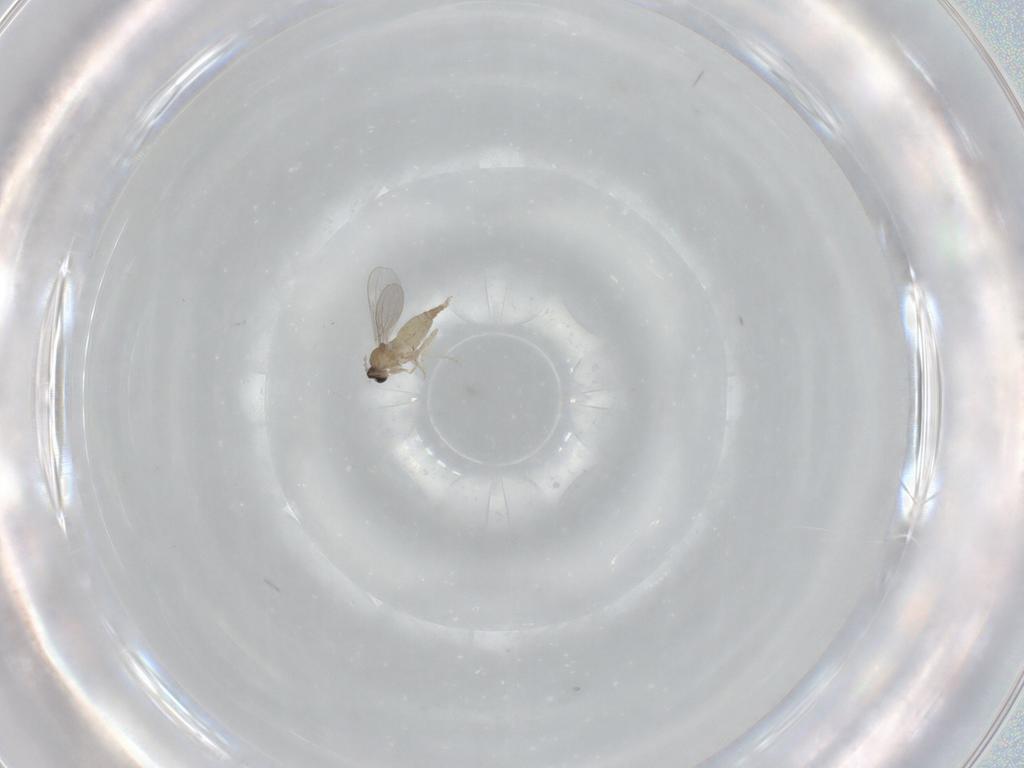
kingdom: Animalia
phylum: Arthropoda
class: Insecta
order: Diptera
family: Cecidomyiidae
